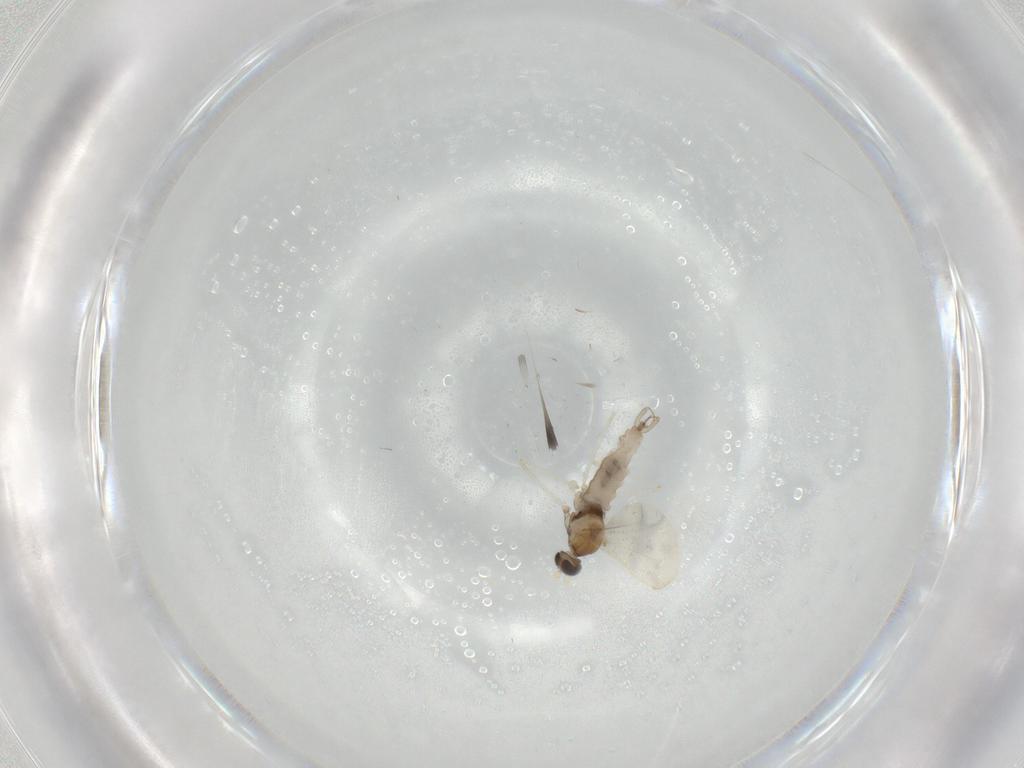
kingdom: Animalia
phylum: Arthropoda
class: Insecta
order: Diptera
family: Cecidomyiidae
